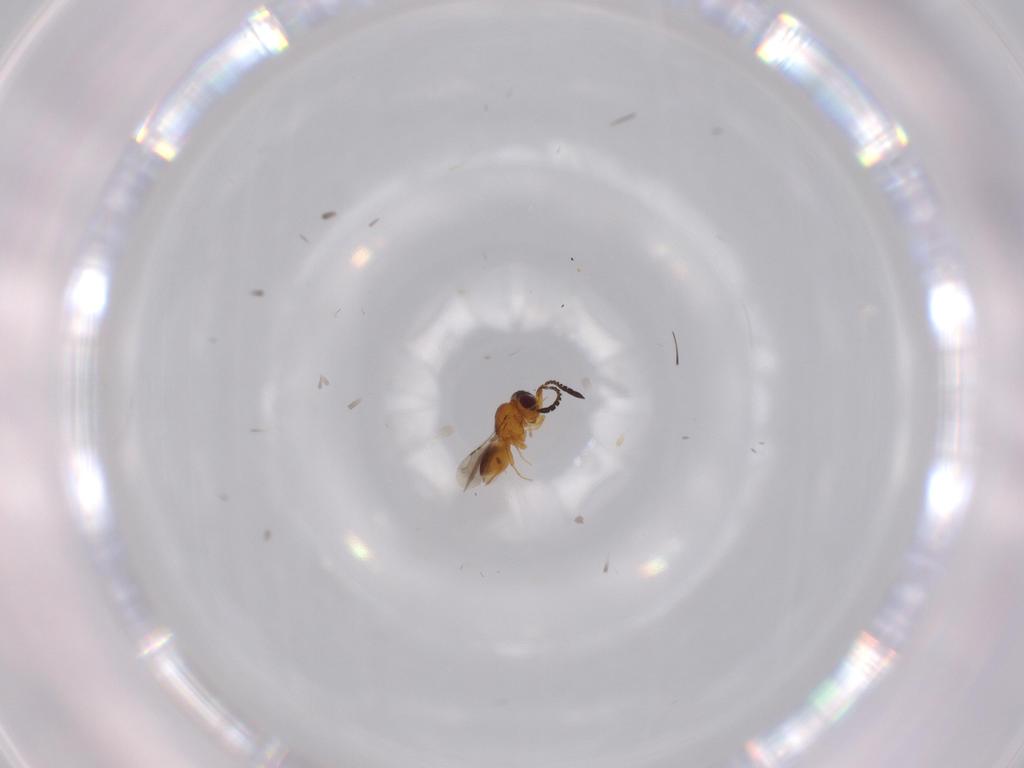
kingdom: Animalia
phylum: Arthropoda
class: Insecta
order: Hymenoptera
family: Ceraphronidae
